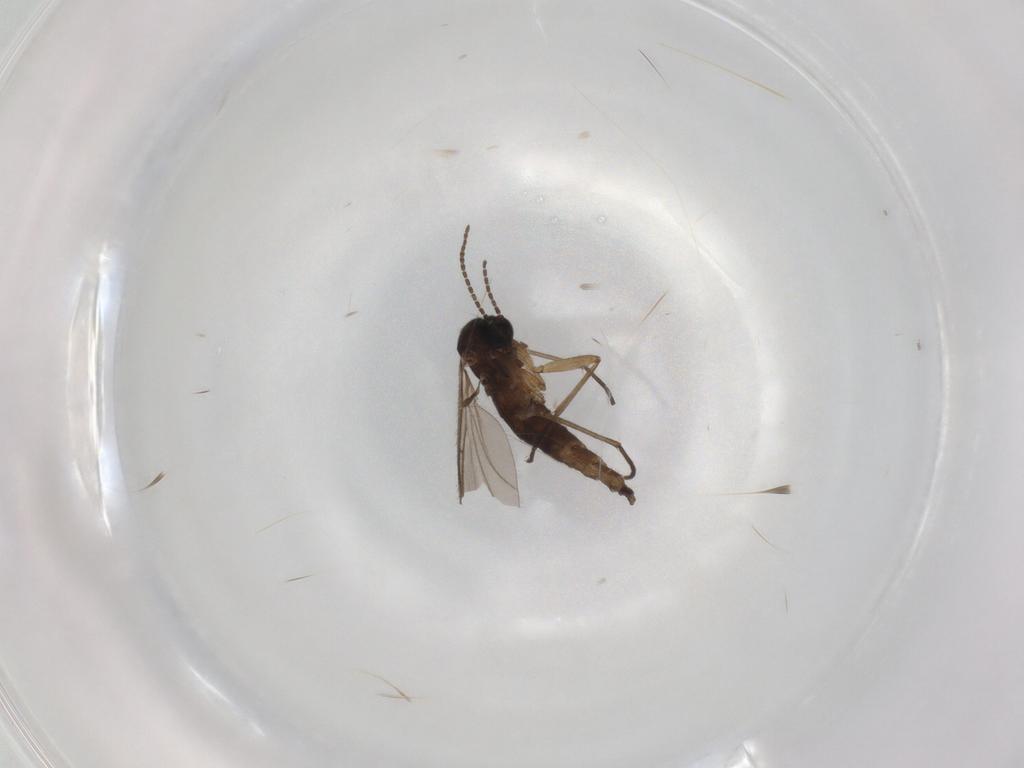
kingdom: Animalia
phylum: Arthropoda
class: Insecta
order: Diptera
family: Sciaridae
